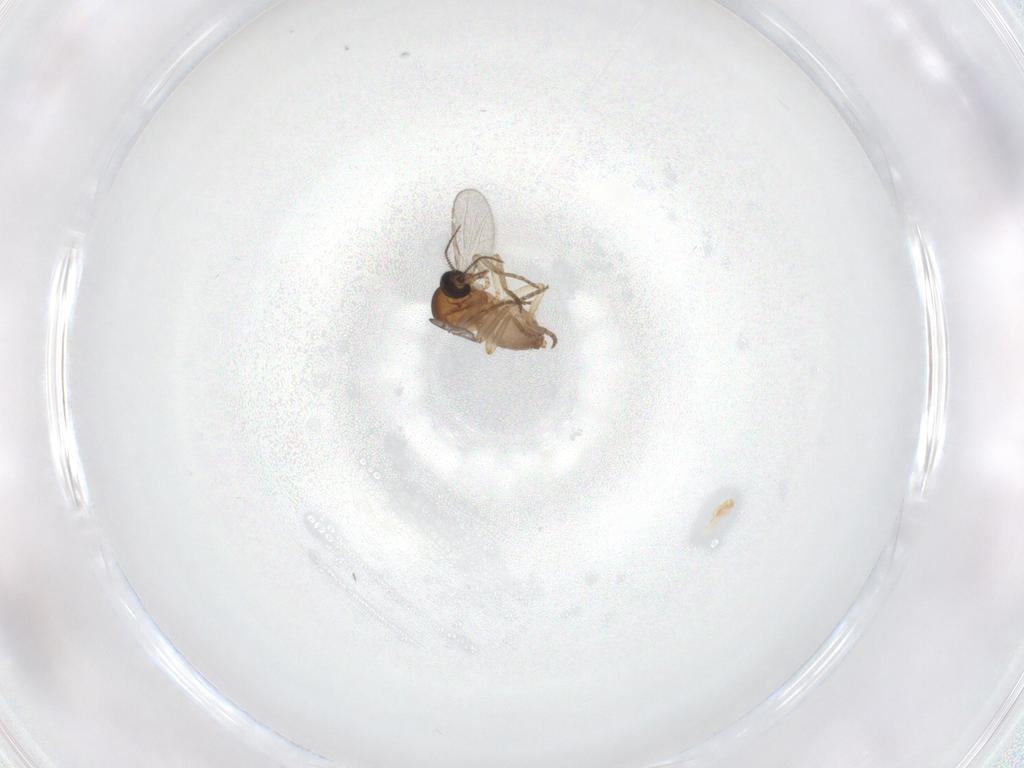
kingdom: Animalia
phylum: Arthropoda
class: Insecta
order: Diptera
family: Ceratopogonidae
